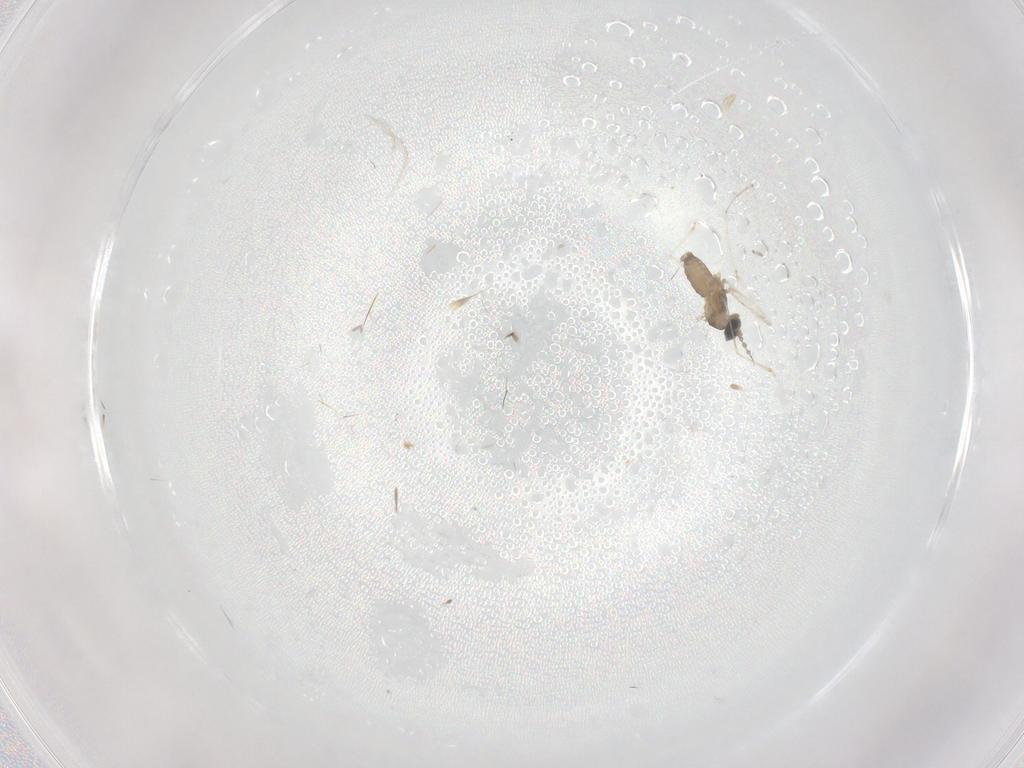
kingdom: Animalia
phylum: Arthropoda
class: Insecta
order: Diptera
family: Cecidomyiidae
